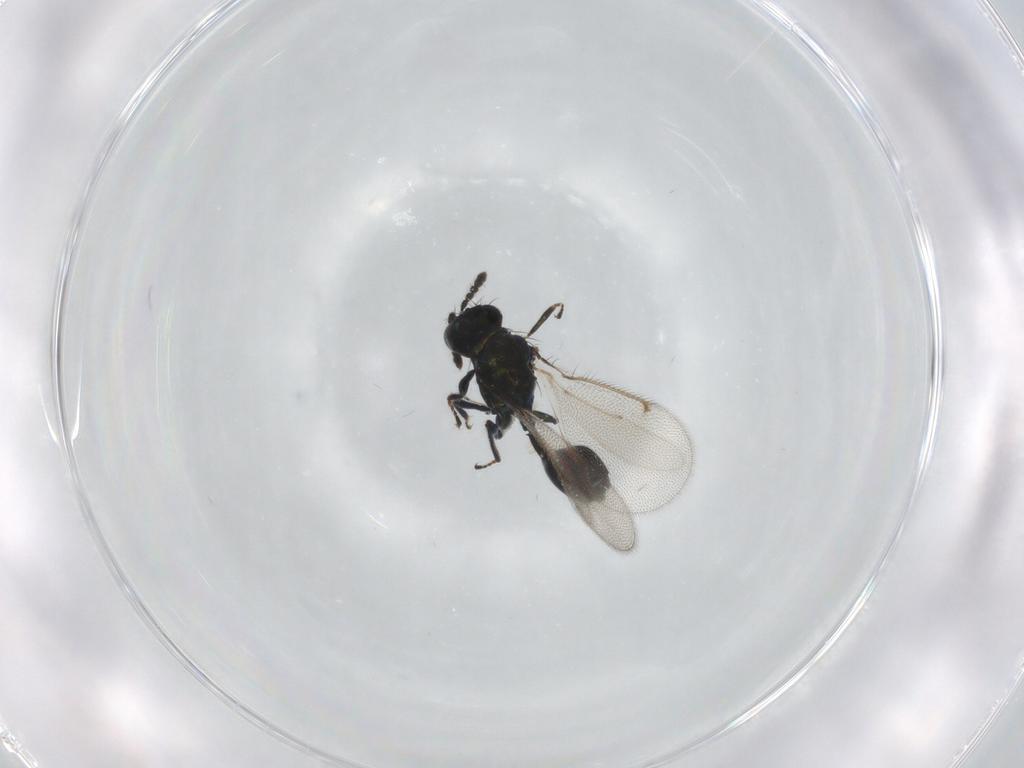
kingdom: Animalia
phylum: Arthropoda
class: Insecta
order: Hymenoptera
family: Eulophidae
